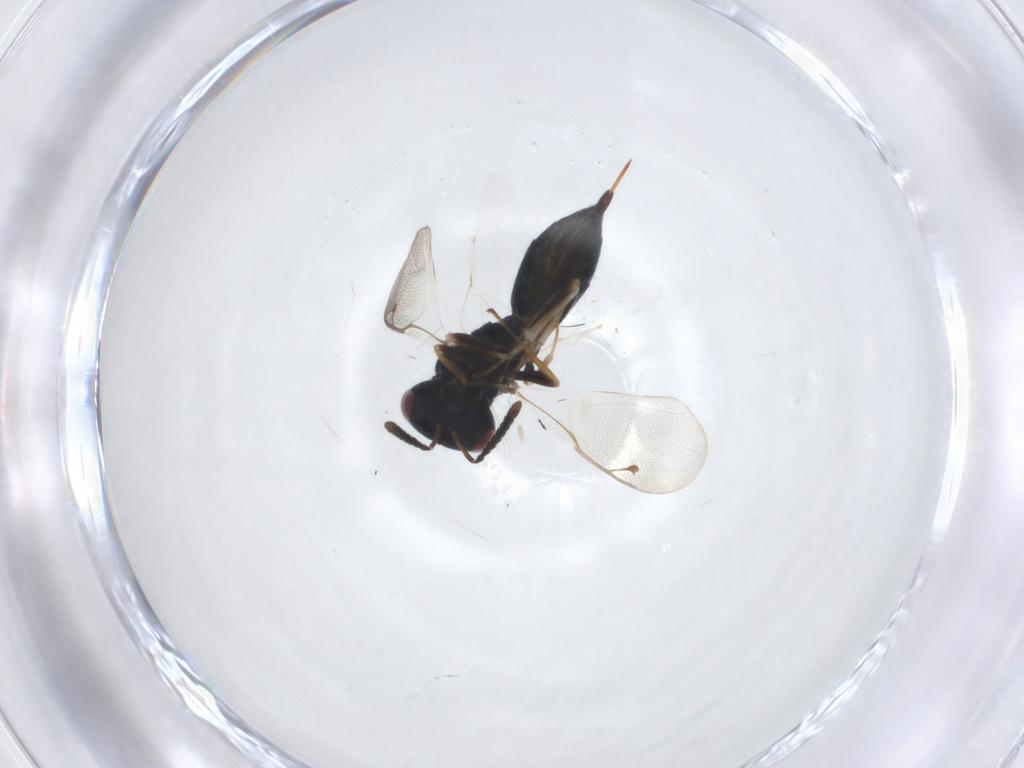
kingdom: Animalia
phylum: Arthropoda
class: Insecta
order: Hymenoptera
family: Pteromalidae
